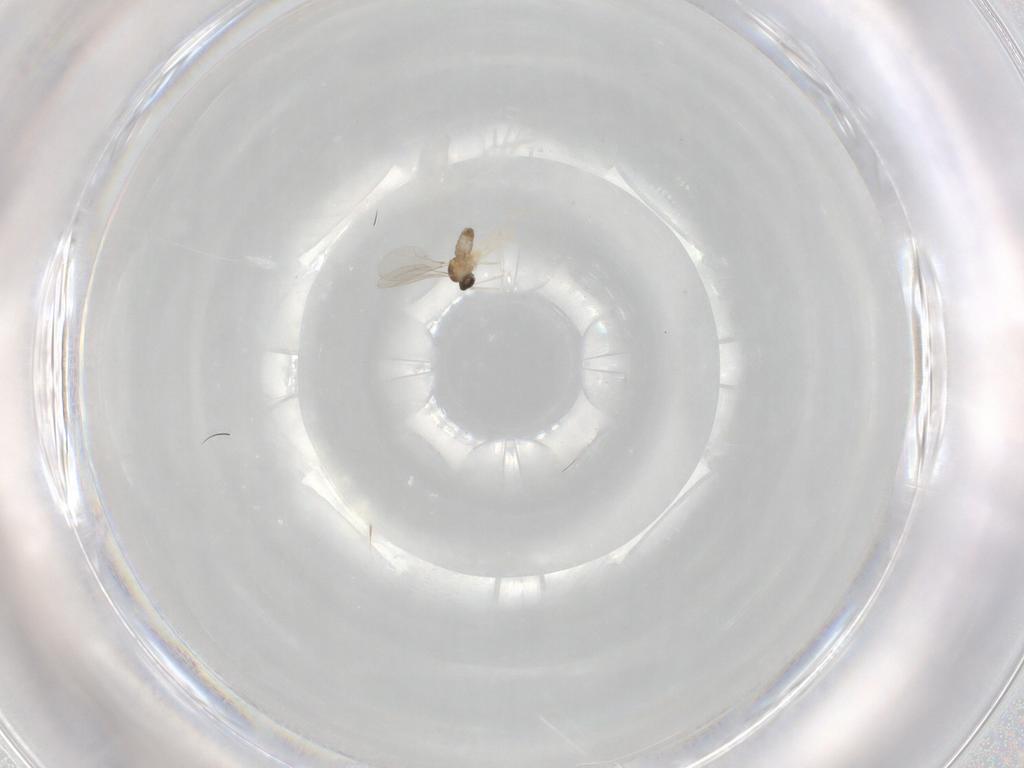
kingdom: Animalia
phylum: Arthropoda
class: Insecta
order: Diptera
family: Cecidomyiidae
